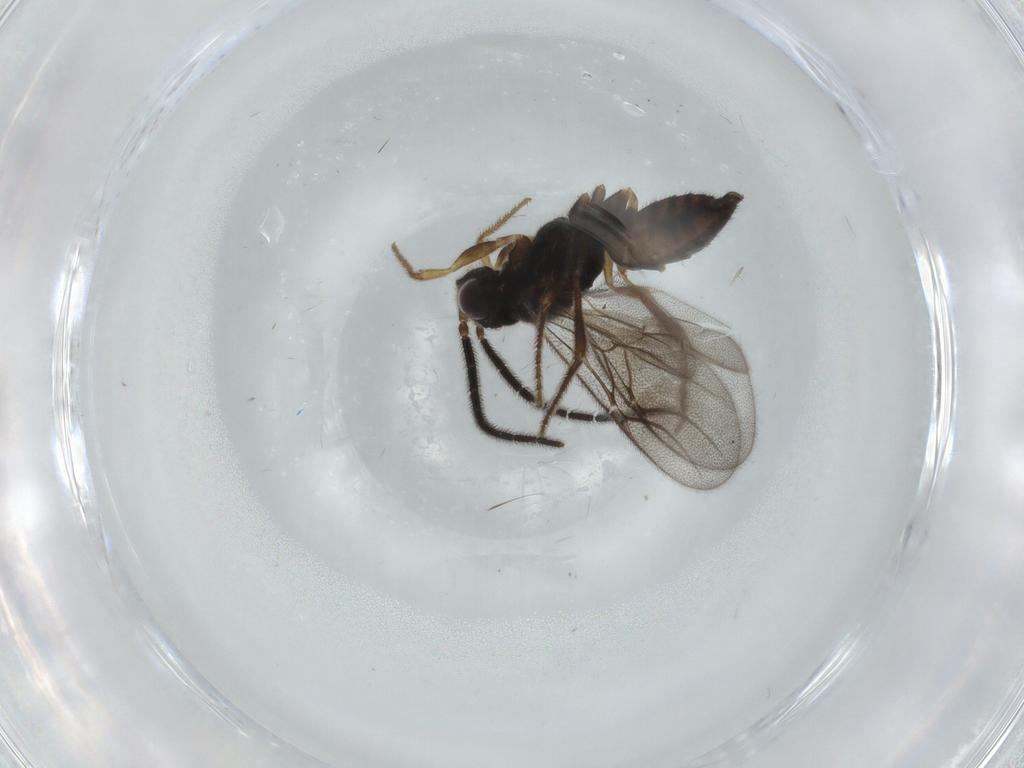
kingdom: Animalia
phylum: Arthropoda
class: Insecta
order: Hymenoptera
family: Dryinidae
